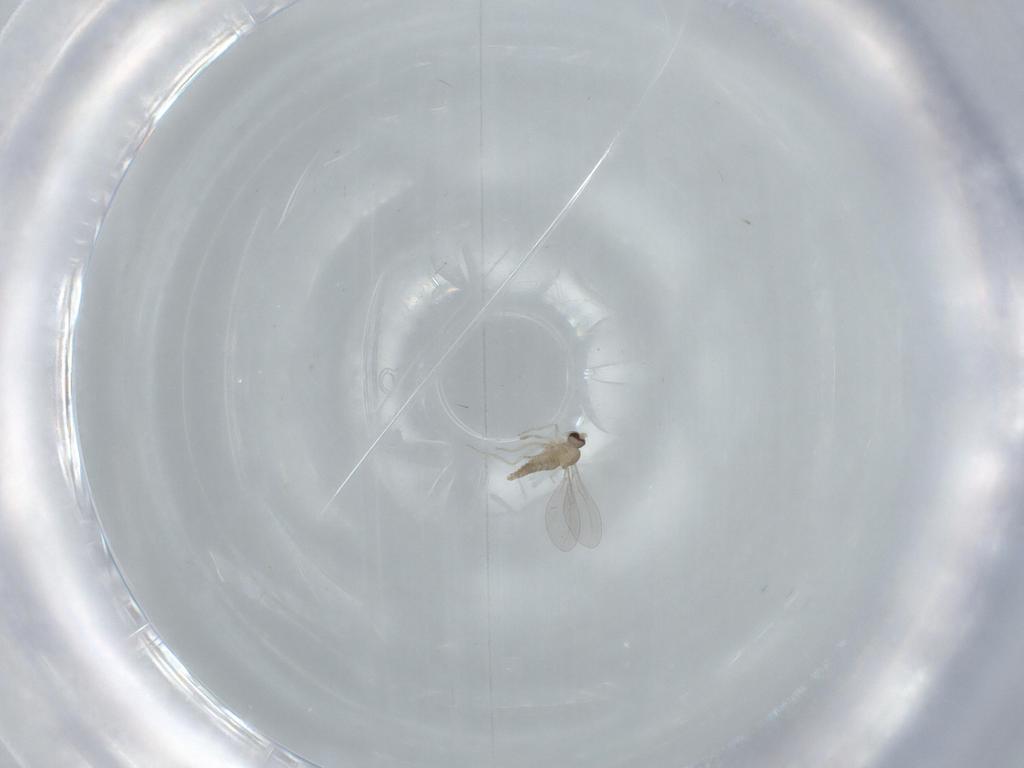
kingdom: Animalia
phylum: Arthropoda
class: Insecta
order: Diptera
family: Cecidomyiidae
